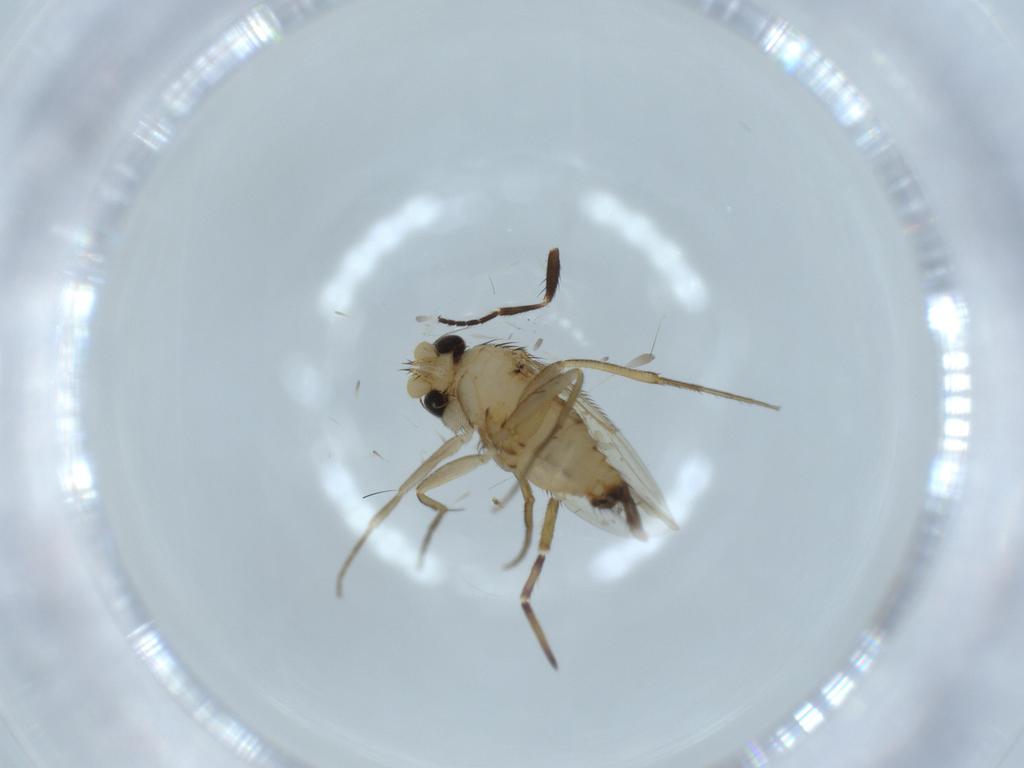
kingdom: Animalia
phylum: Arthropoda
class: Insecta
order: Diptera
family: Phoridae
